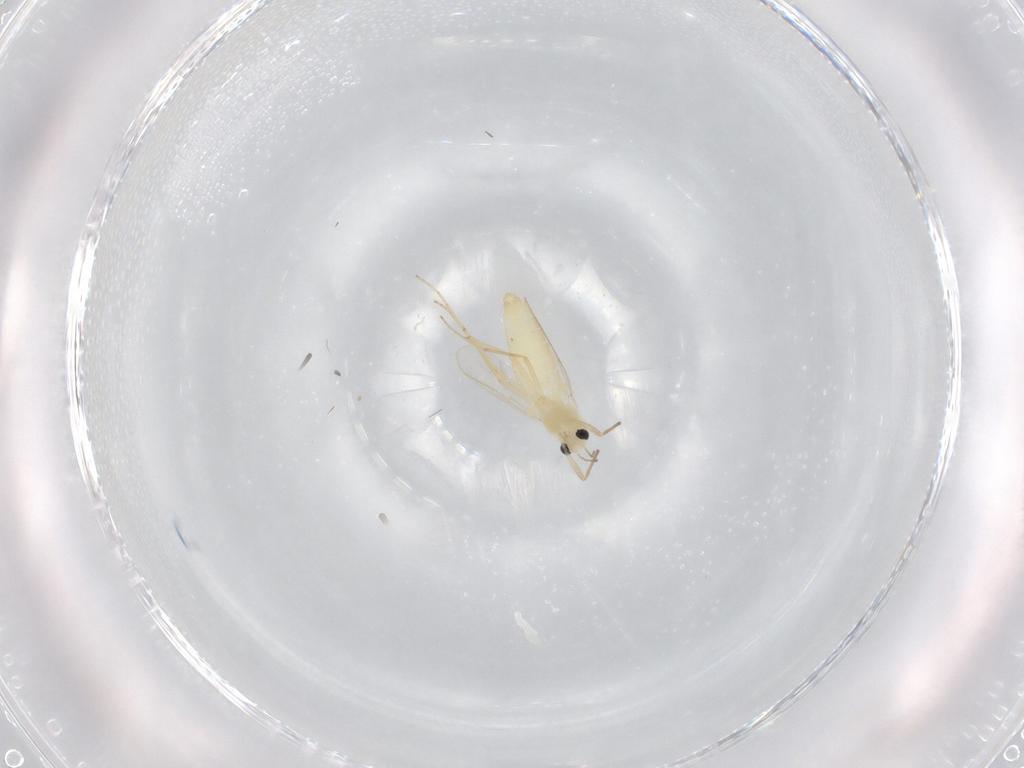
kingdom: Animalia
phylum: Arthropoda
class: Insecta
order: Diptera
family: Chironomidae
